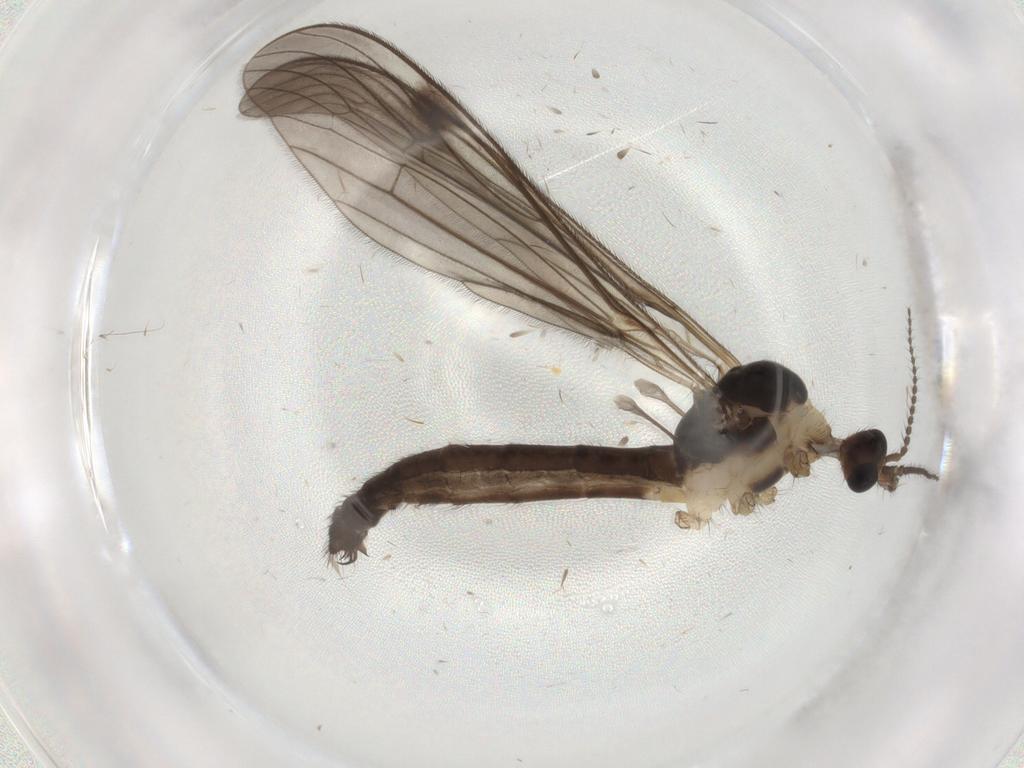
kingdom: Animalia
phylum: Arthropoda
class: Insecta
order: Diptera
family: Limoniidae
